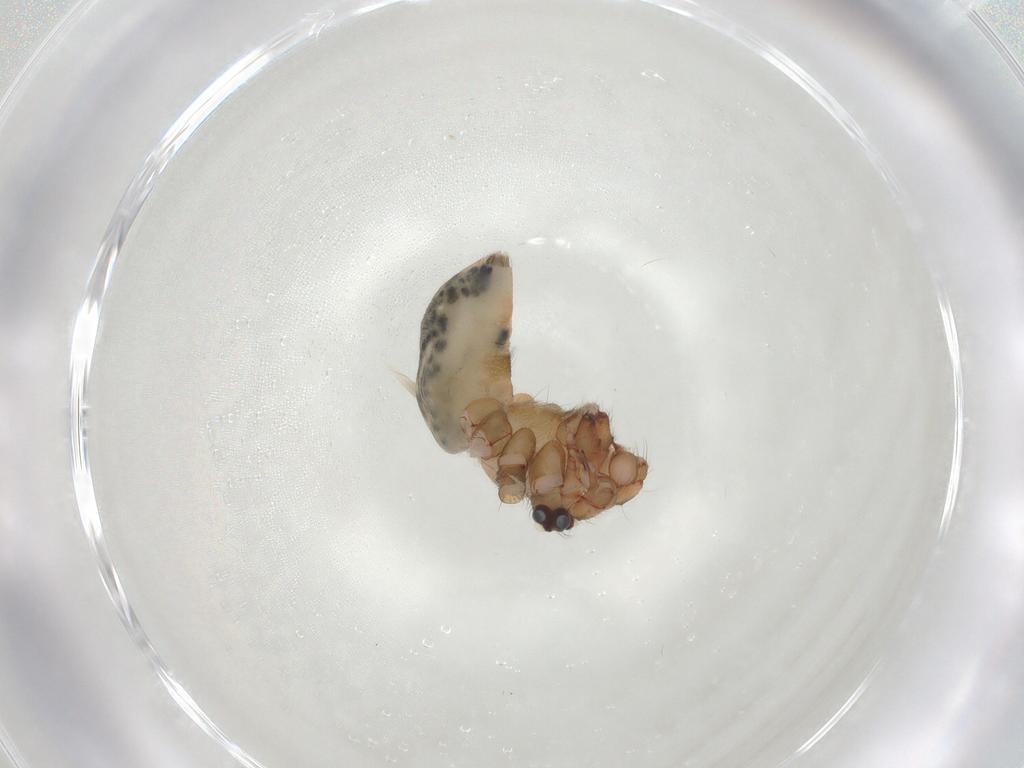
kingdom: Animalia
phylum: Arthropoda
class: Arachnida
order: Araneae
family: Pholcidae
